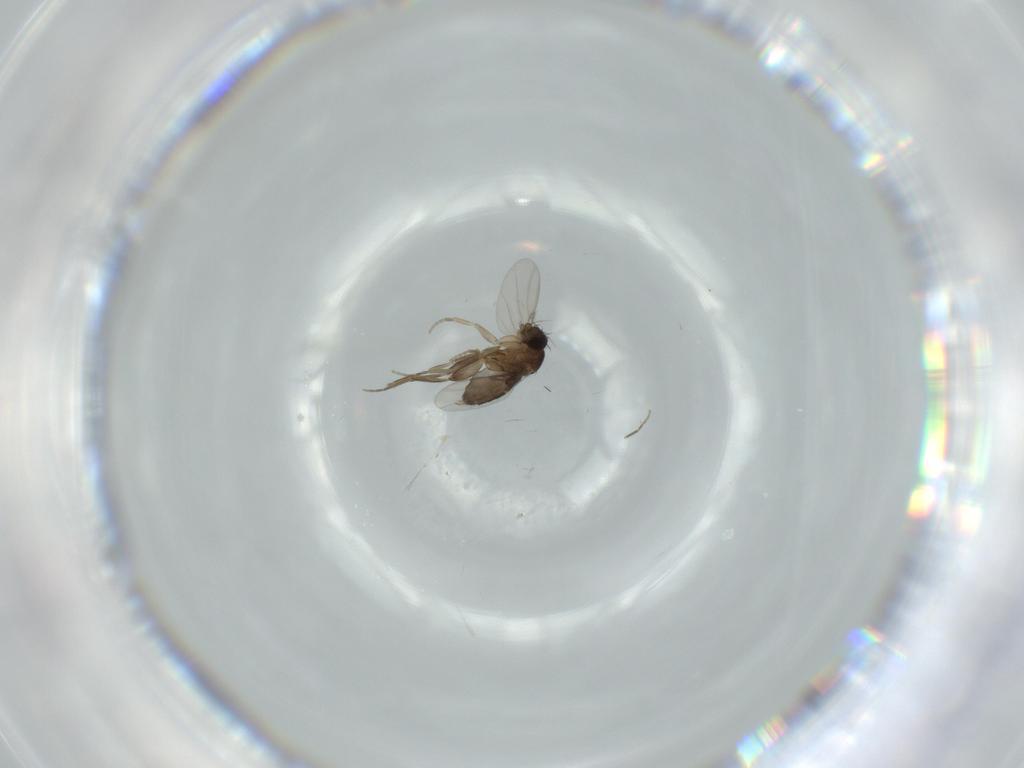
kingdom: Animalia
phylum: Arthropoda
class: Insecta
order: Diptera
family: Phoridae
